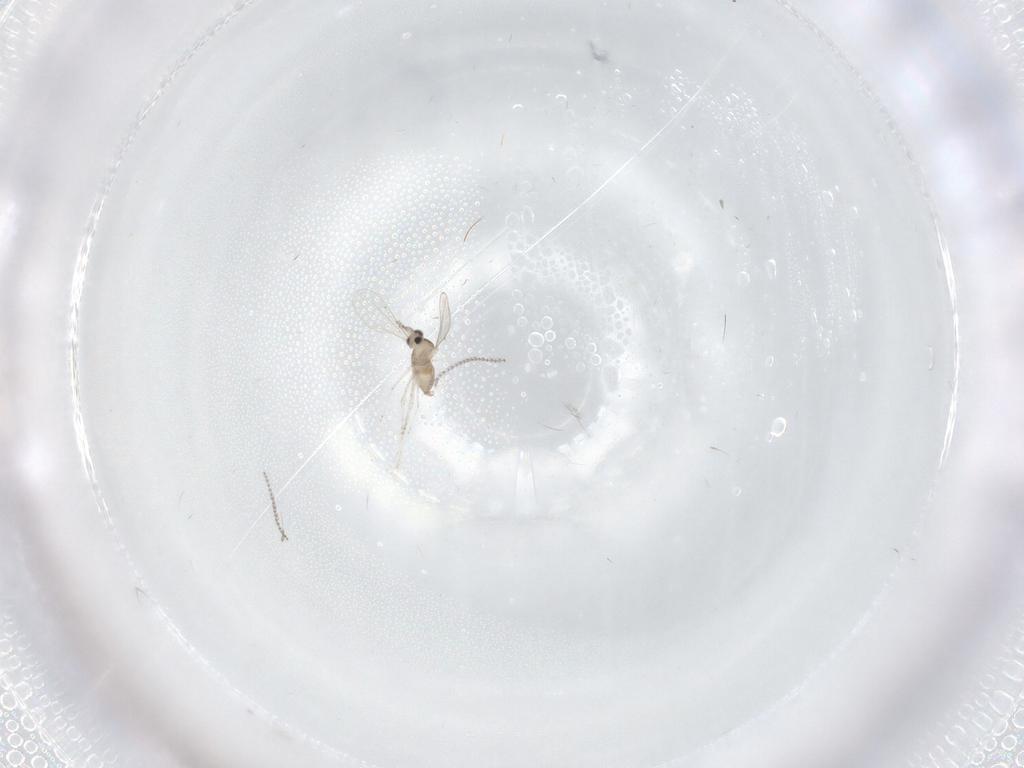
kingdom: Animalia
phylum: Arthropoda
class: Insecta
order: Diptera
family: Cecidomyiidae
